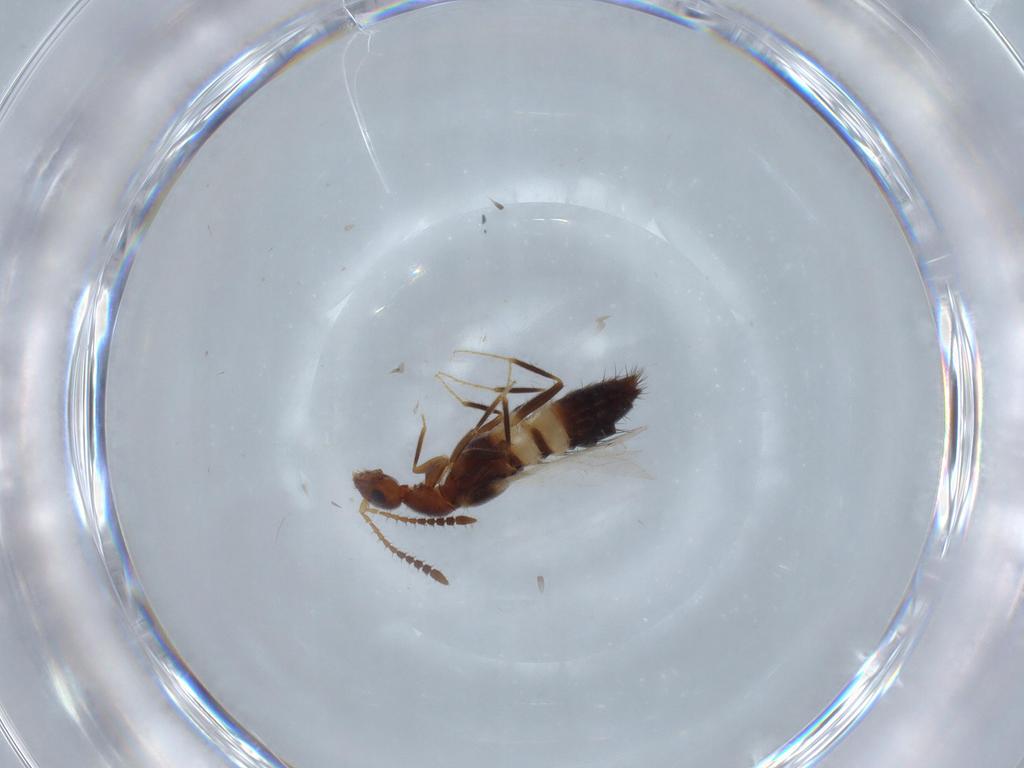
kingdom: Animalia
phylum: Arthropoda
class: Insecta
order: Coleoptera
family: Staphylinidae
